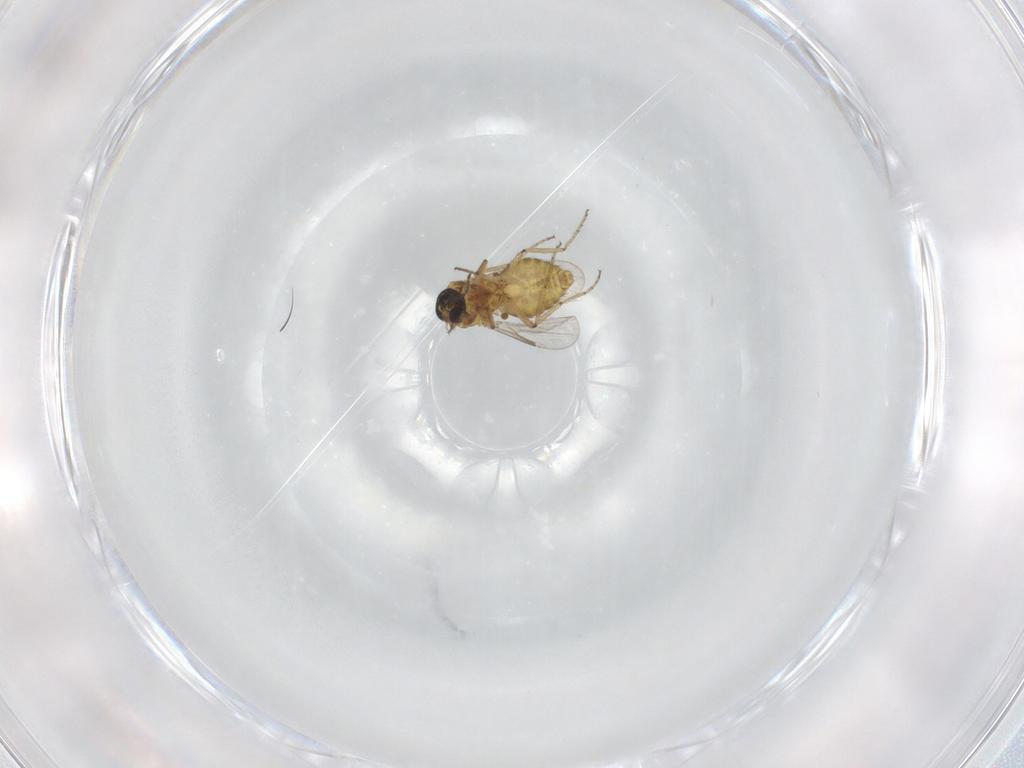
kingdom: Animalia
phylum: Arthropoda
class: Insecta
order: Diptera
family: Ceratopogonidae
